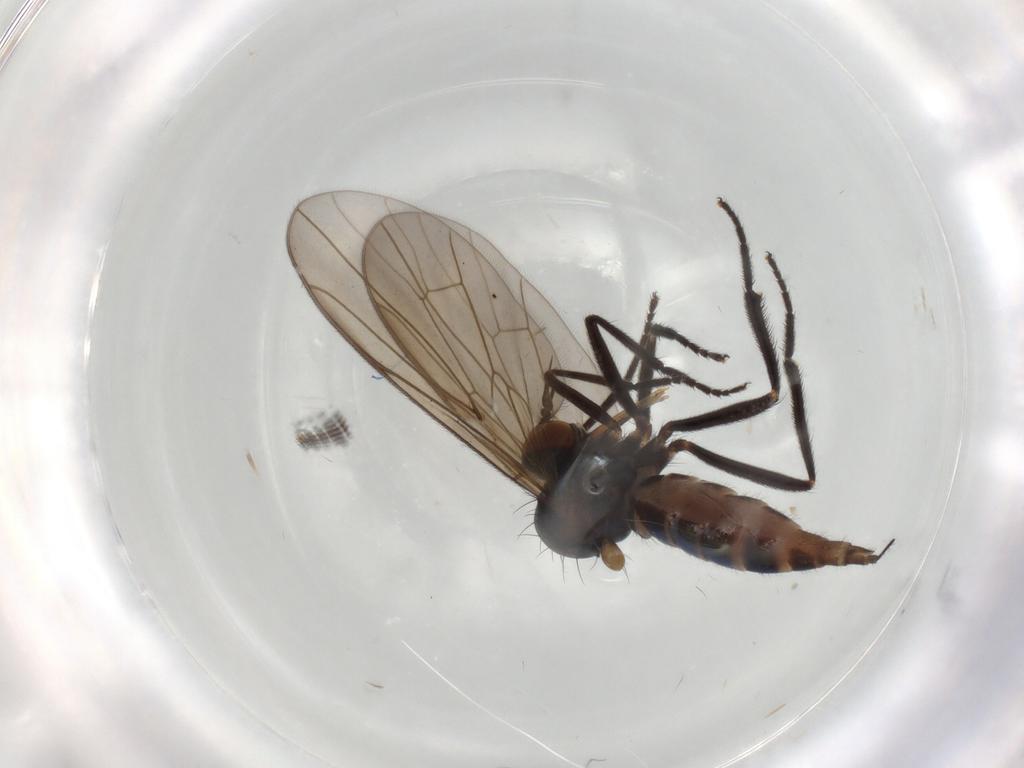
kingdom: Animalia
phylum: Arthropoda
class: Insecta
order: Diptera
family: Empididae
